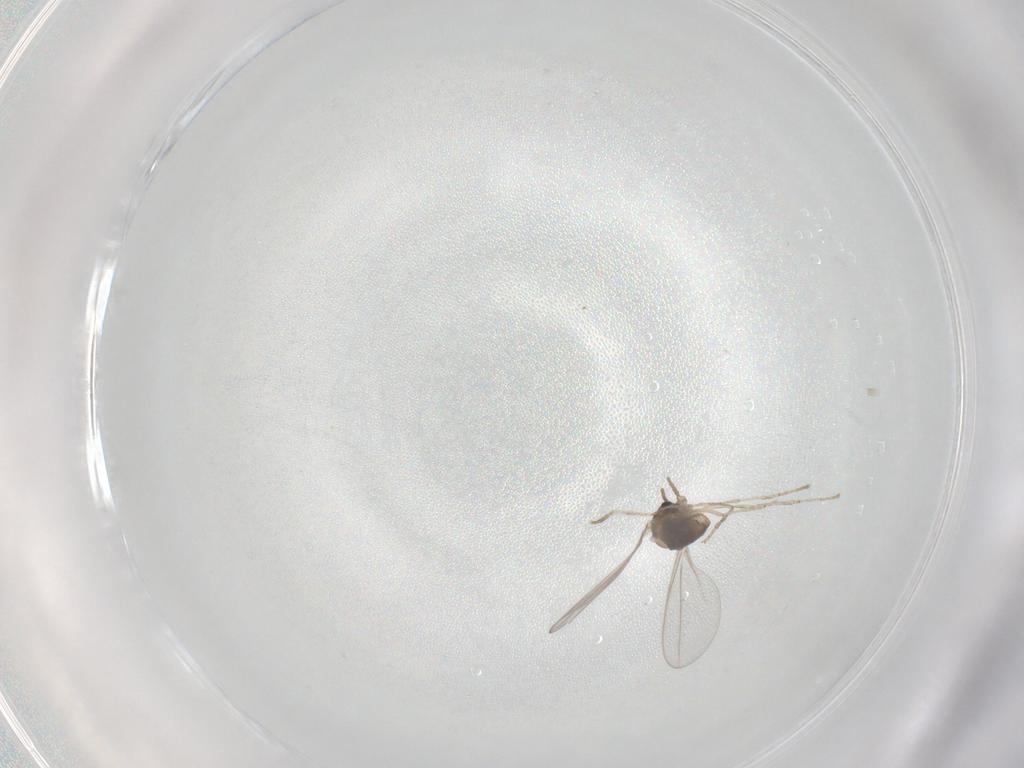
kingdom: Animalia
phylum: Arthropoda
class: Insecta
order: Diptera
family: Cecidomyiidae
